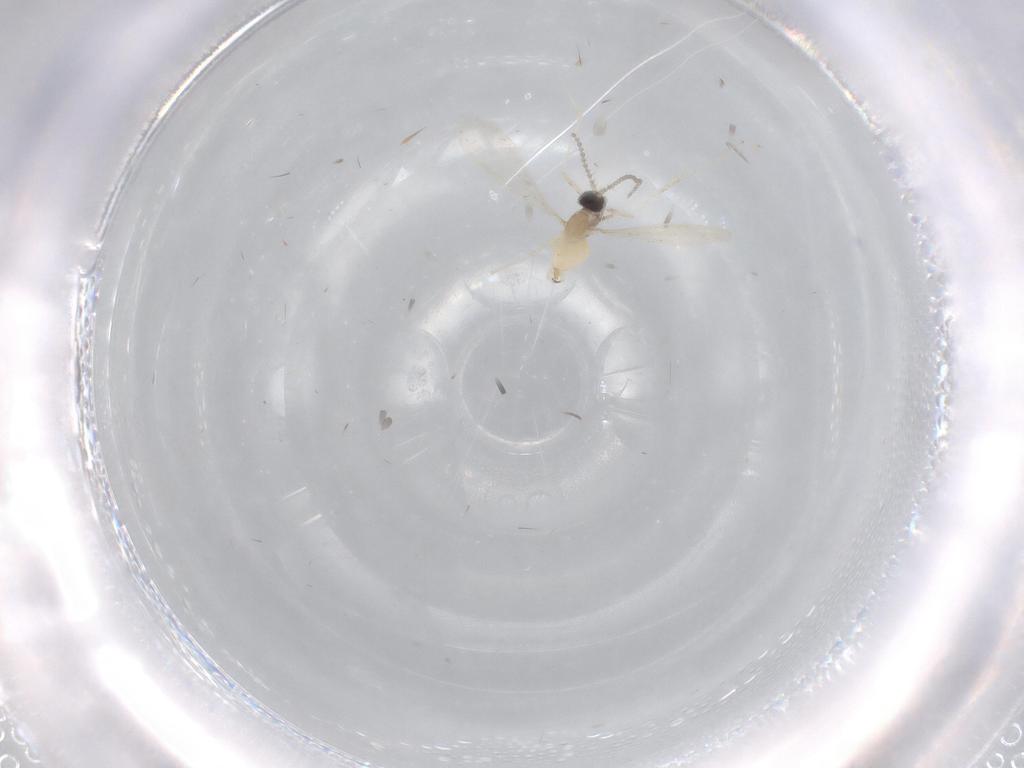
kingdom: Animalia
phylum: Arthropoda
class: Insecta
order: Diptera
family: Cecidomyiidae
